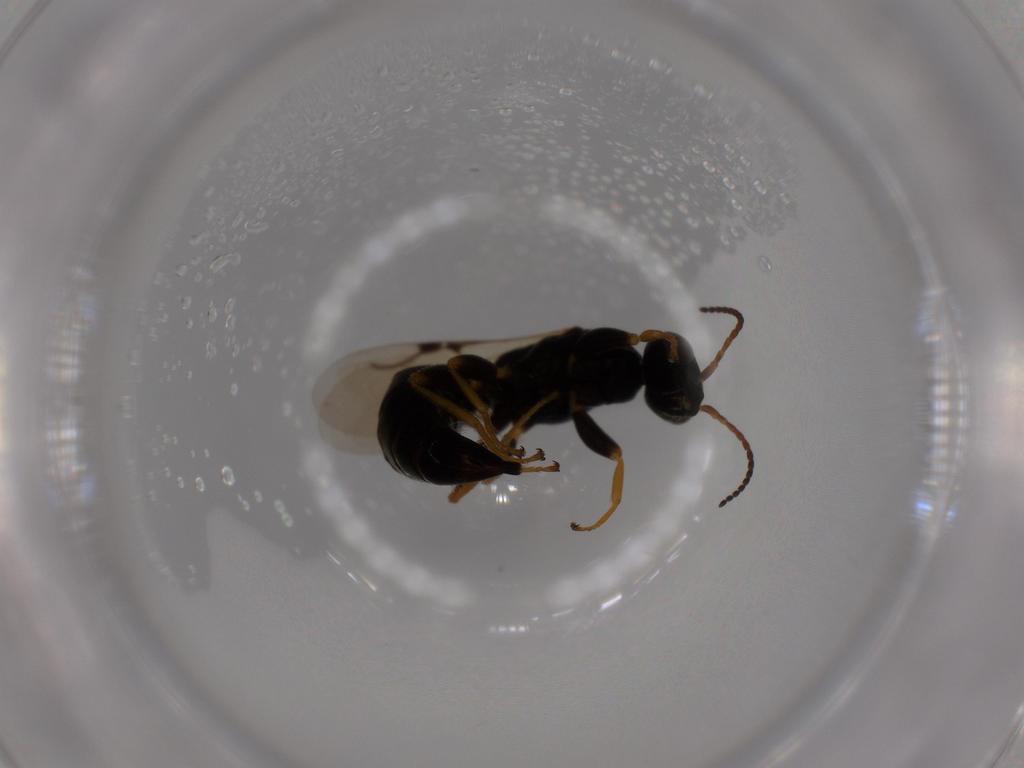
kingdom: Animalia
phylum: Arthropoda
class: Insecta
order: Hymenoptera
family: Bethylidae
